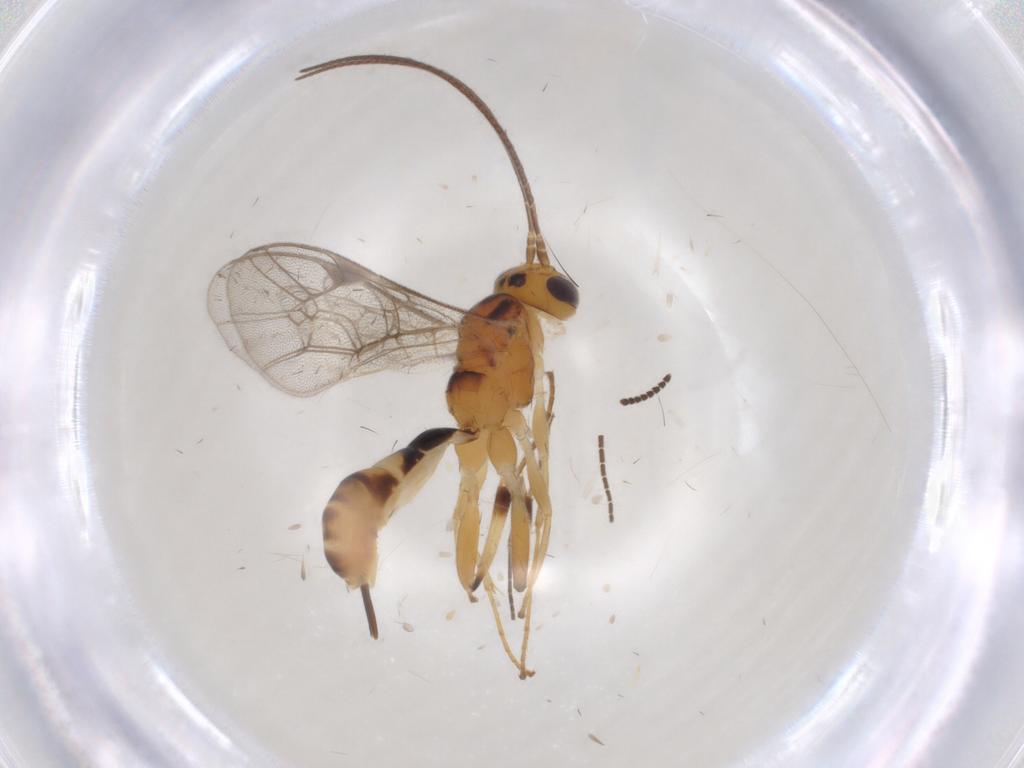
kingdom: Animalia
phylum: Arthropoda
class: Insecta
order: Hymenoptera
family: Ichneumonidae
